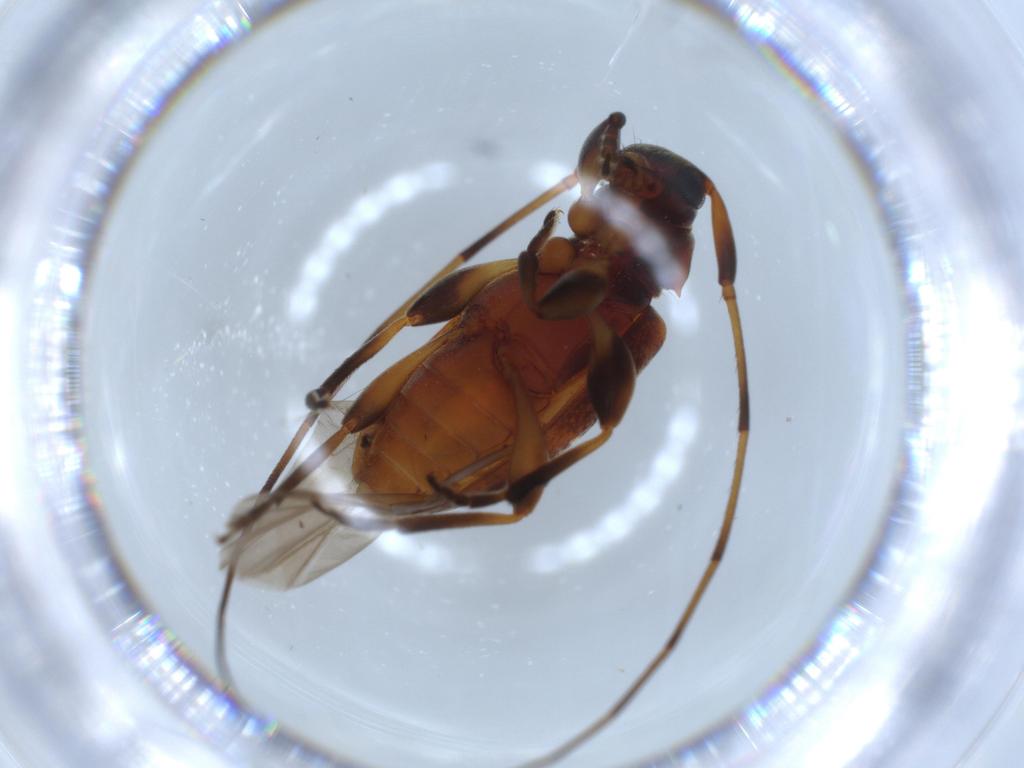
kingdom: Animalia
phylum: Arthropoda
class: Insecta
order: Coleoptera
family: Cerambycidae
